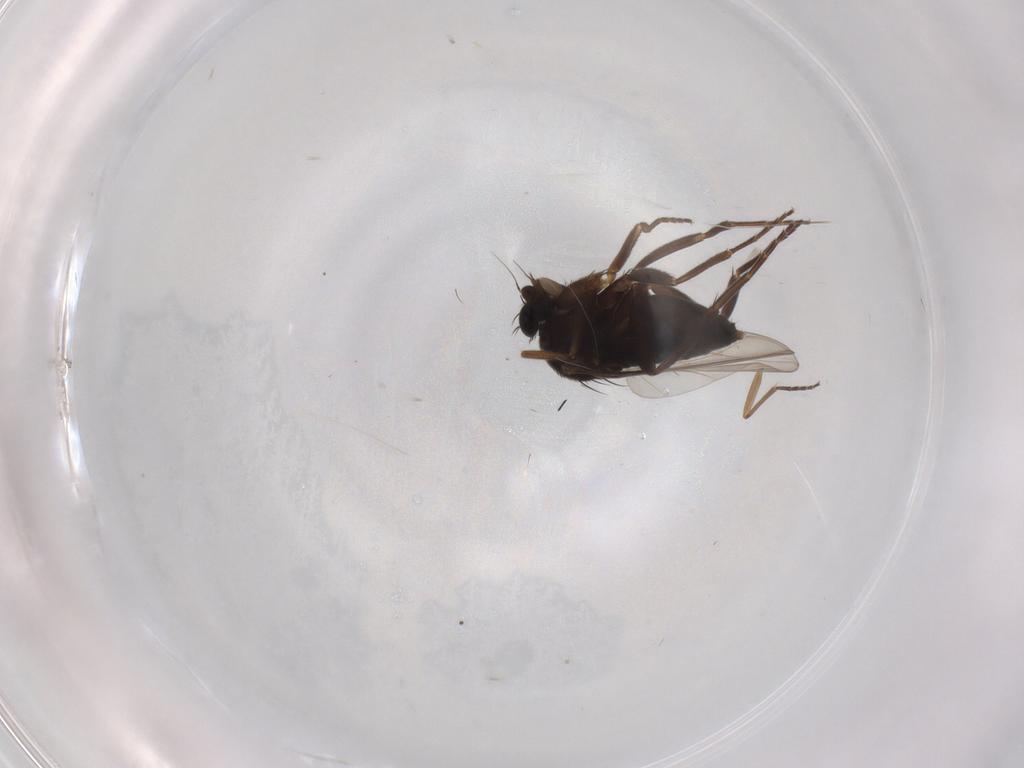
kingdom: Animalia
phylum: Arthropoda
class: Insecta
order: Diptera
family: Phoridae
